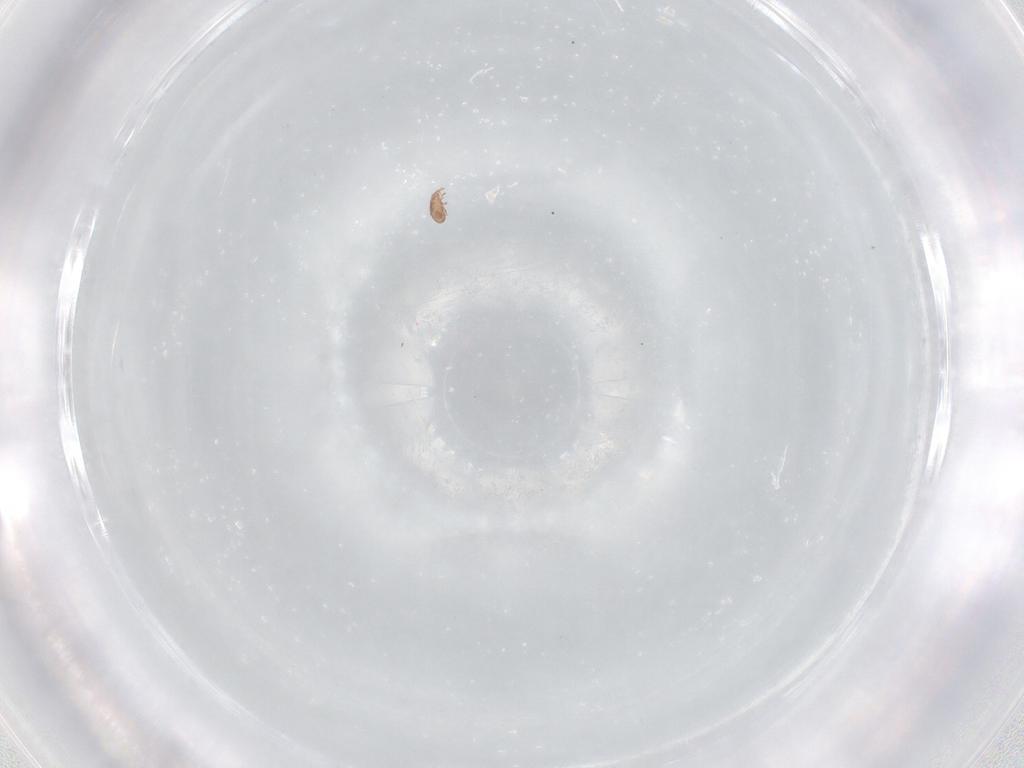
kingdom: Animalia
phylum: Arthropoda
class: Arachnida
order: Sarcoptiformes
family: Eremaeidae
